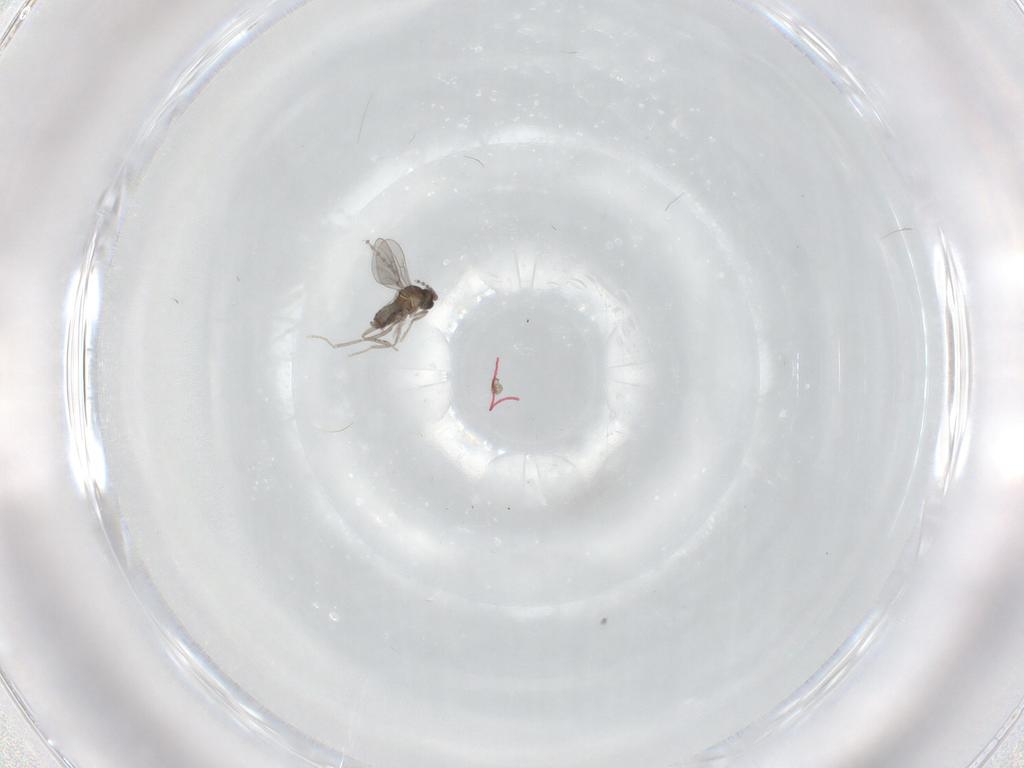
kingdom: Animalia
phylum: Arthropoda
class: Insecta
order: Diptera
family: Cecidomyiidae
